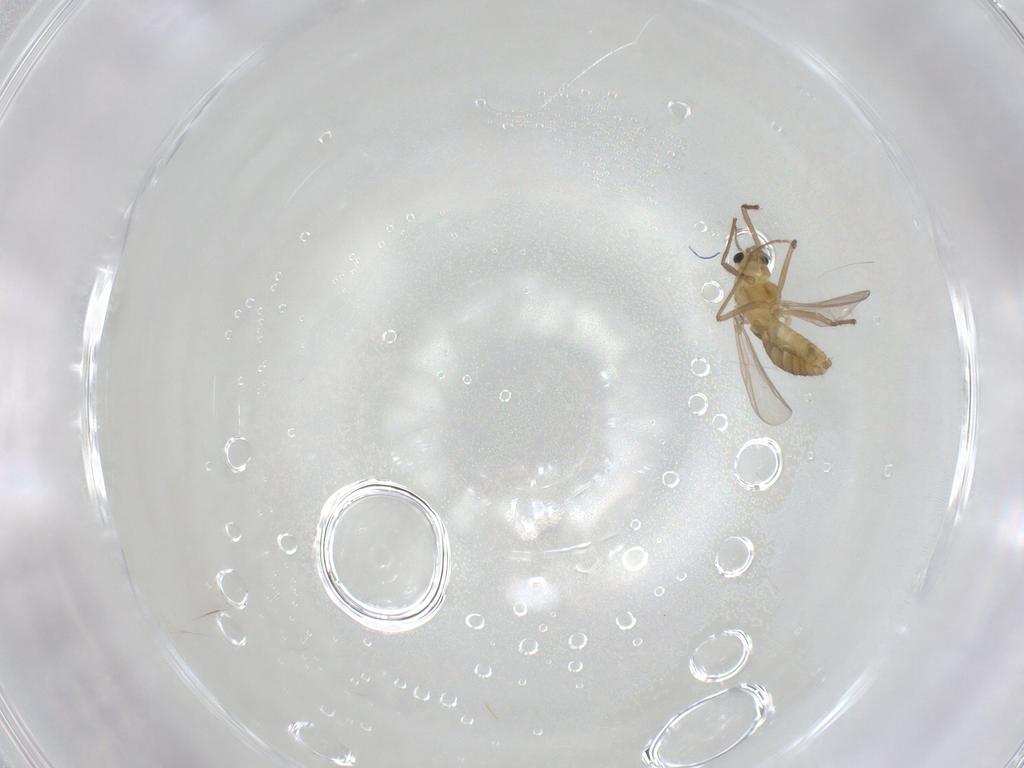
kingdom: Animalia
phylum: Arthropoda
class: Insecta
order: Diptera
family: Chironomidae
